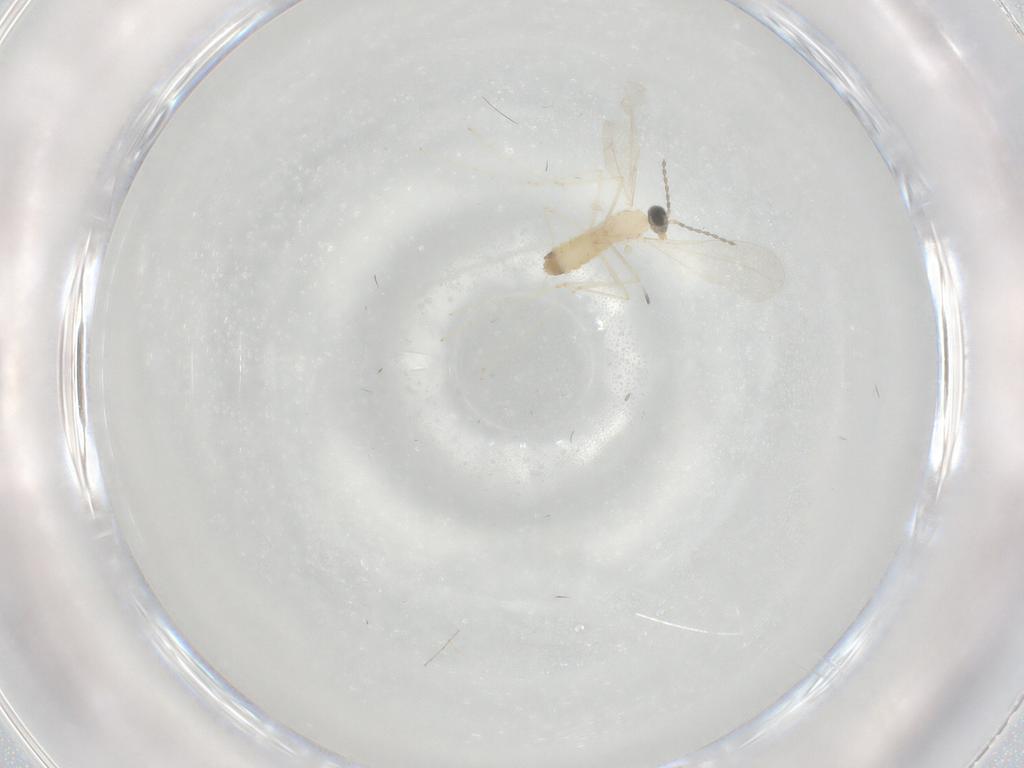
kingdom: Animalia
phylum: Arthropoda
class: Insecta
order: Diptera
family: Cecidomyiidae
